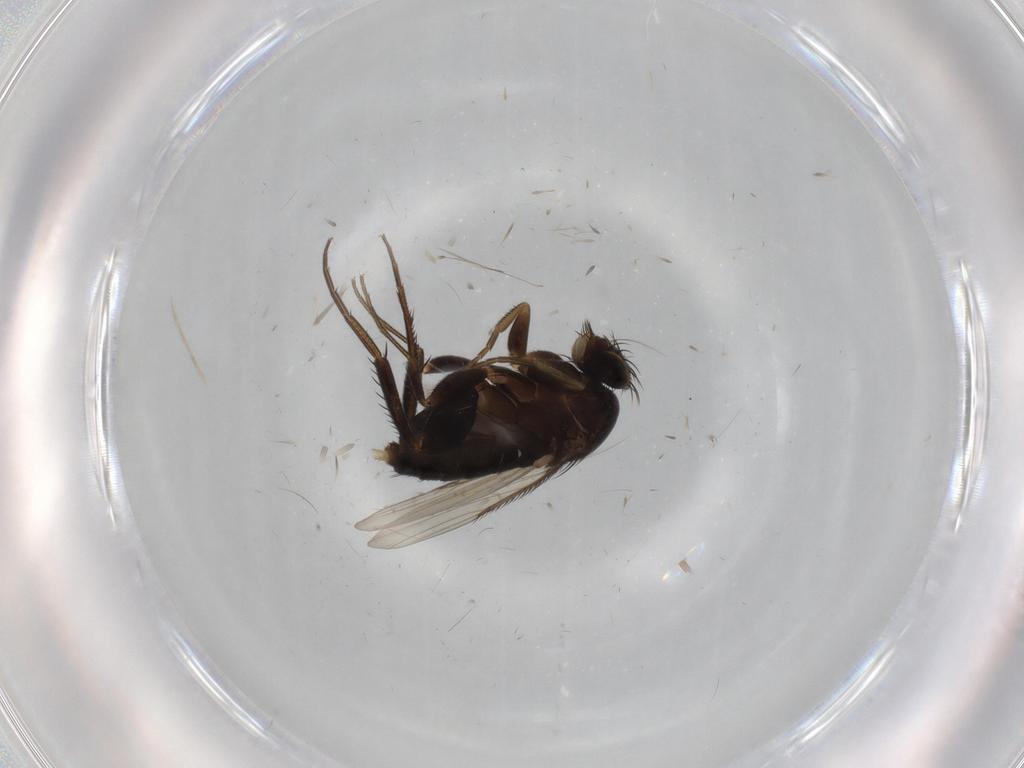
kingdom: Animalia
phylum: Arthropoda
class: Insecta
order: Diptera
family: Phoridae
